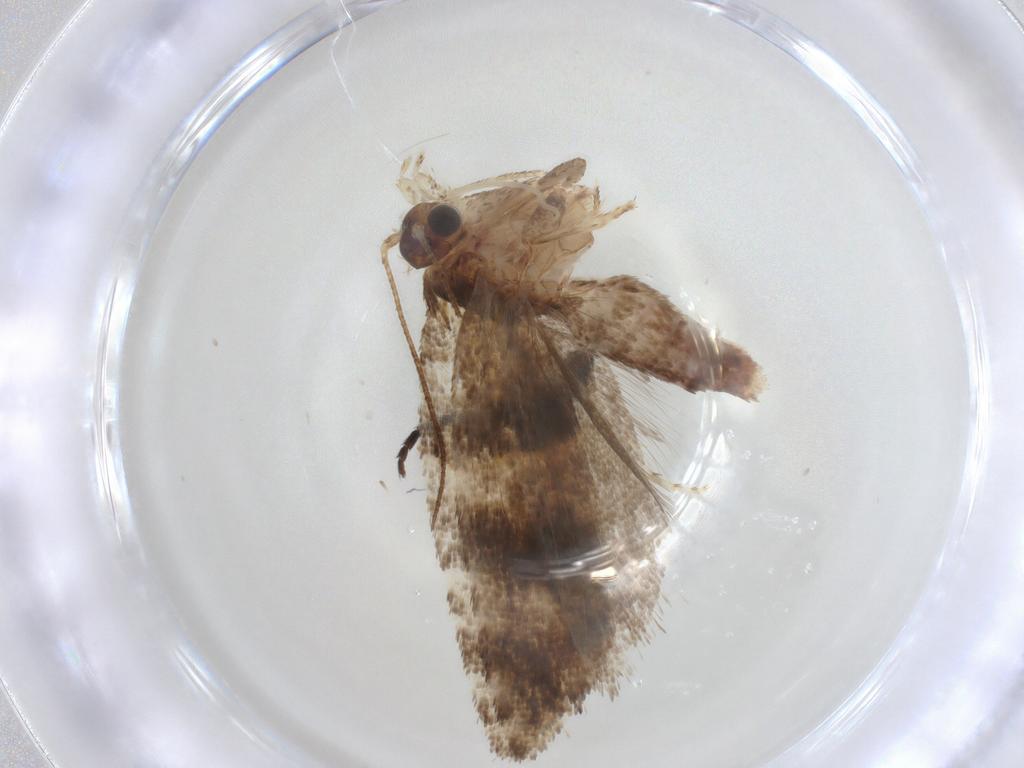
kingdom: Animalia
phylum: Arthropoda
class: Insecta
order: Lepidoptera
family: Tortricidae
